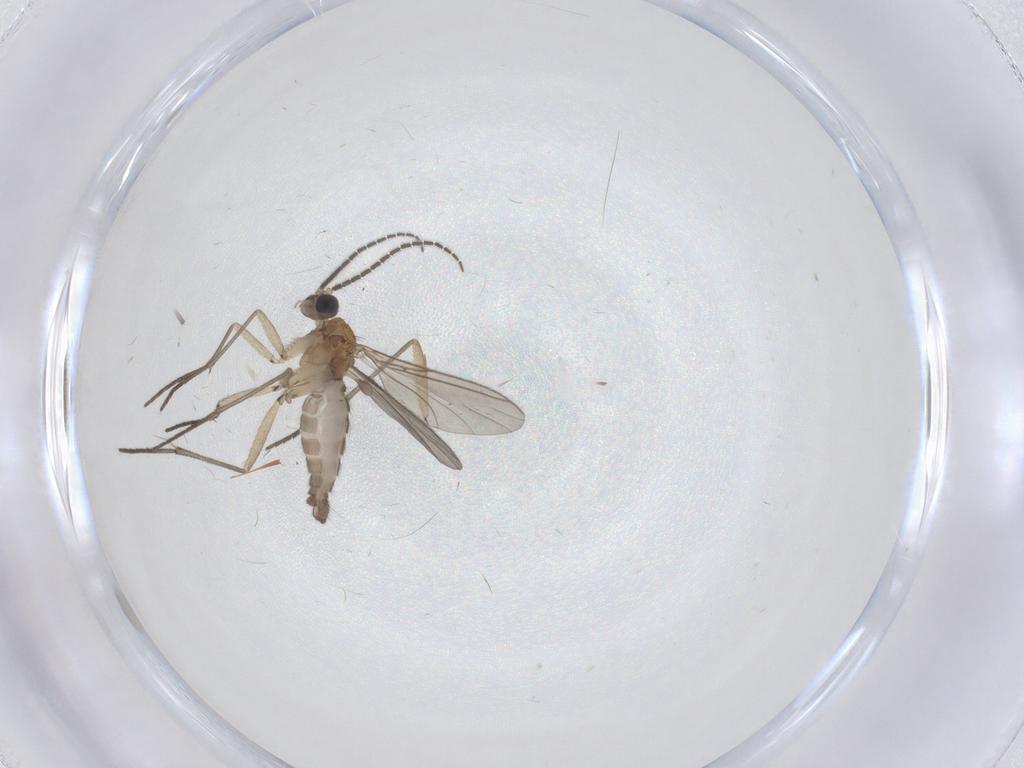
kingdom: Animalia
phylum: Arthropoda
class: Insecta
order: Diptera
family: Sciaridae
